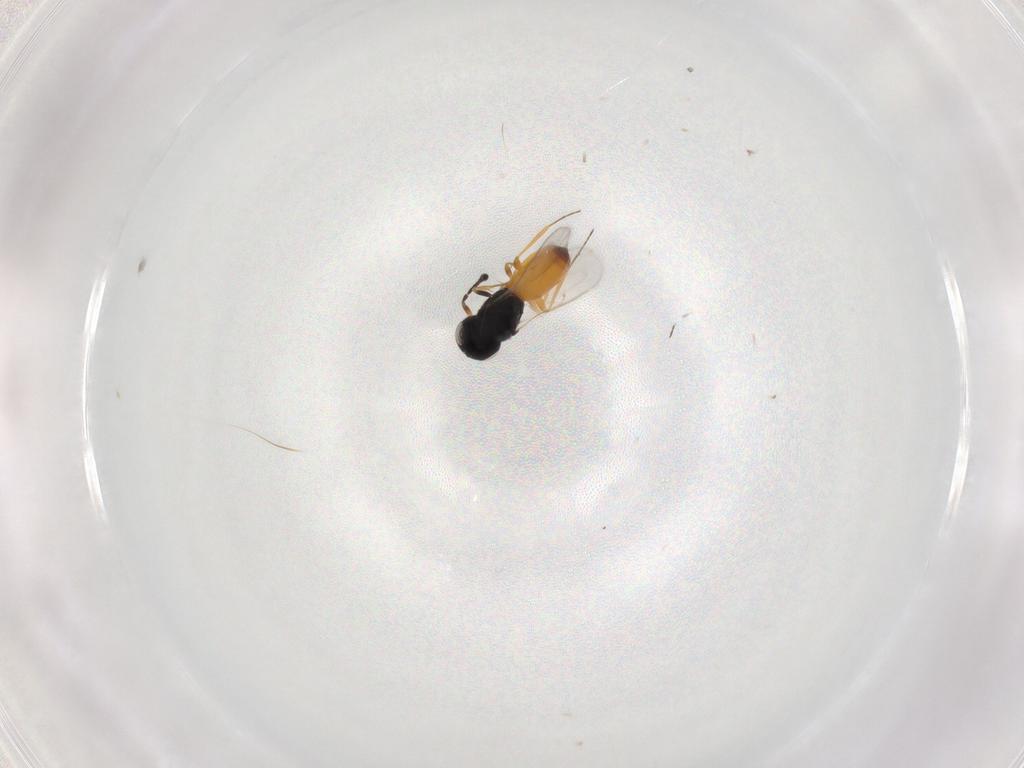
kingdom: Animalia
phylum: Arthropoda
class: Insecta
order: Hymenoptera
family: Scelionidae
